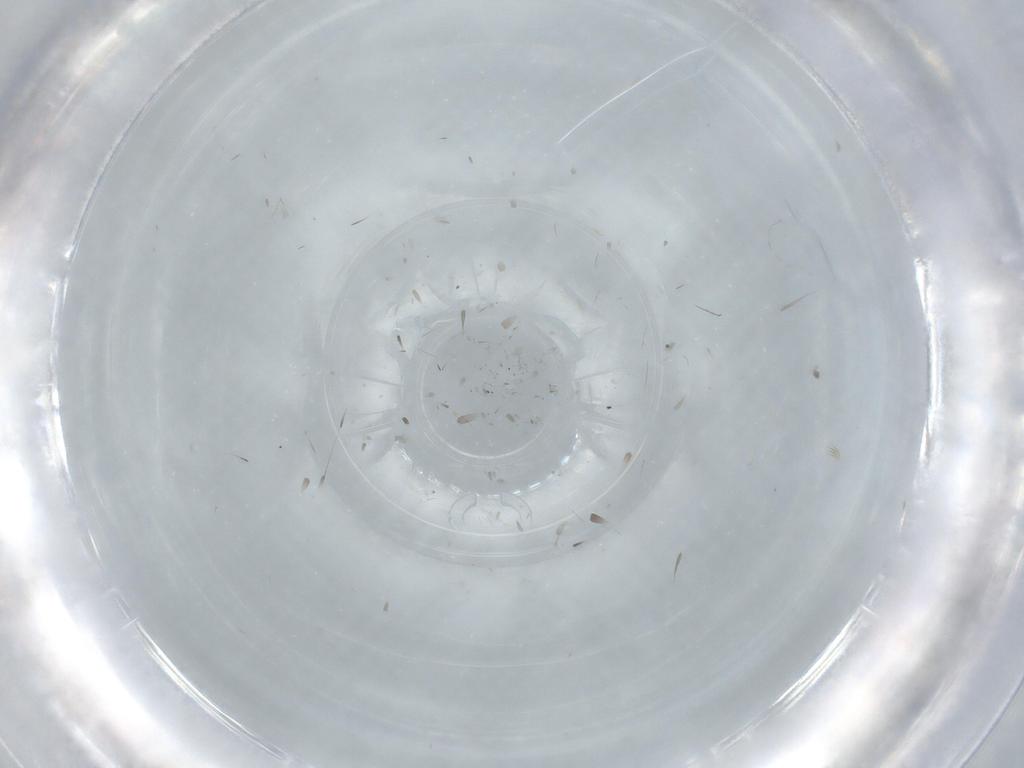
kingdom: Animalia
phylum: Arthropoda
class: Insecta
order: Hymenoptera
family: Mymaridae
